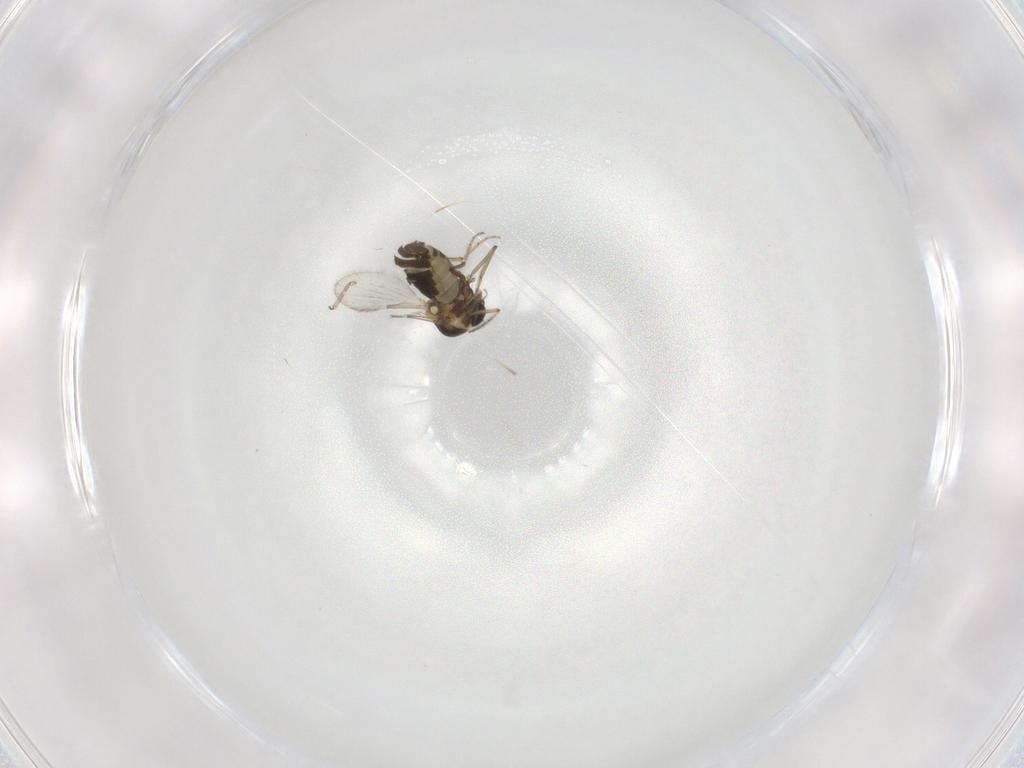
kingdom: Animalia
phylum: Arthropoda
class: Insecta
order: Diptera
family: Ceratopogonidae
